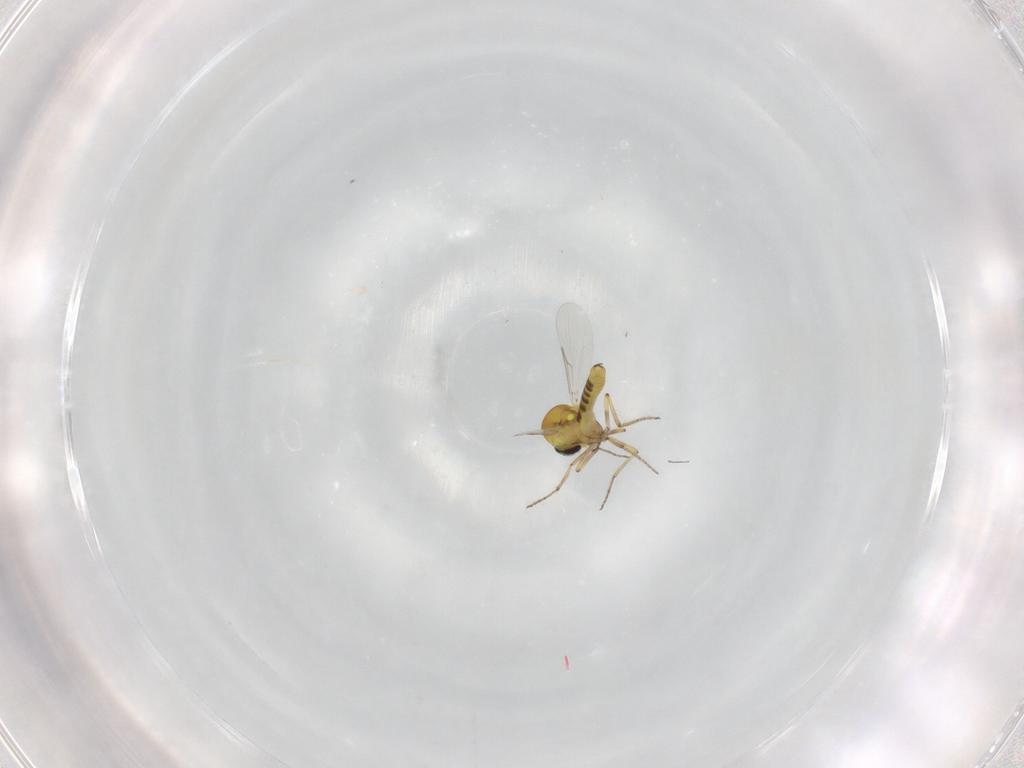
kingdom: Animalia
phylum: Arthropoda
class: Insecta
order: Diptera
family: Ceratopogonidae
